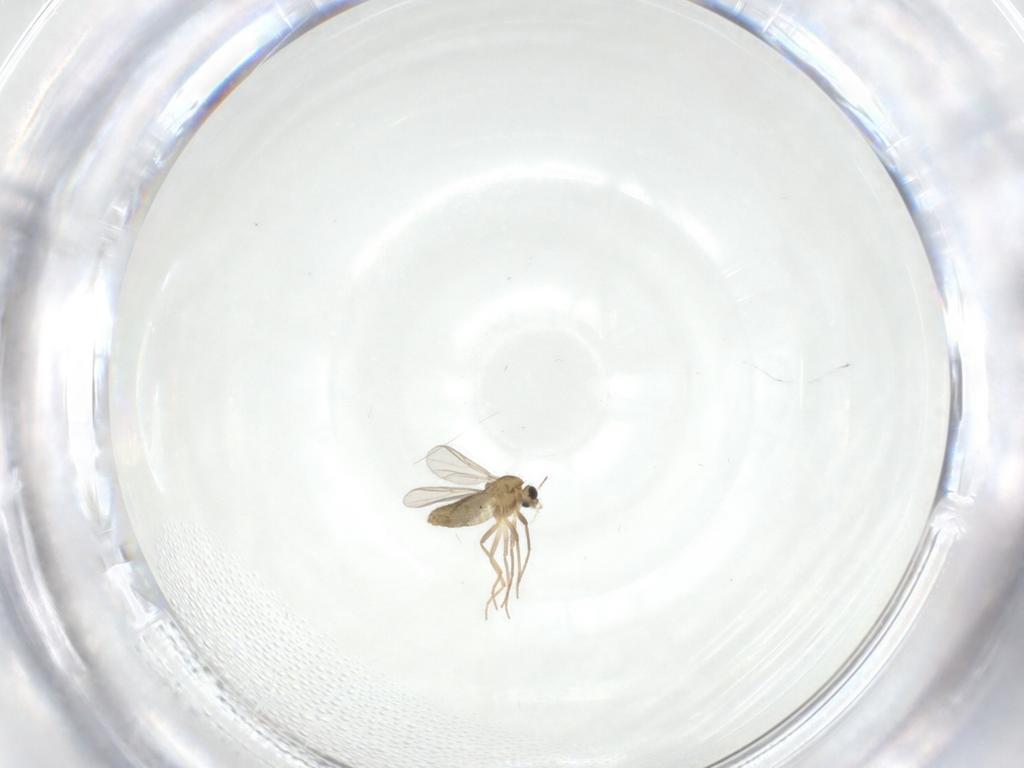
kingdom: Animalia
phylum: Arthropoda
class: Insecta
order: Diptera
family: Chironomidae
